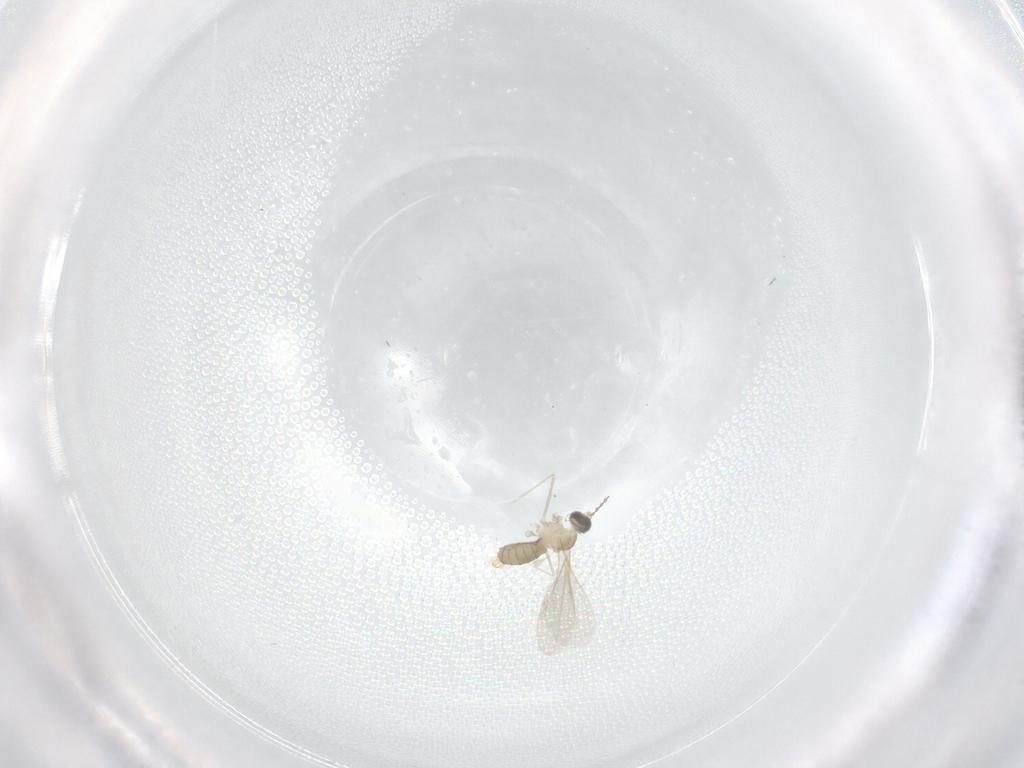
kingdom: Animalia
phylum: Arthropoda
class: Insecta
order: Diptera
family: Cecidomyiidae
